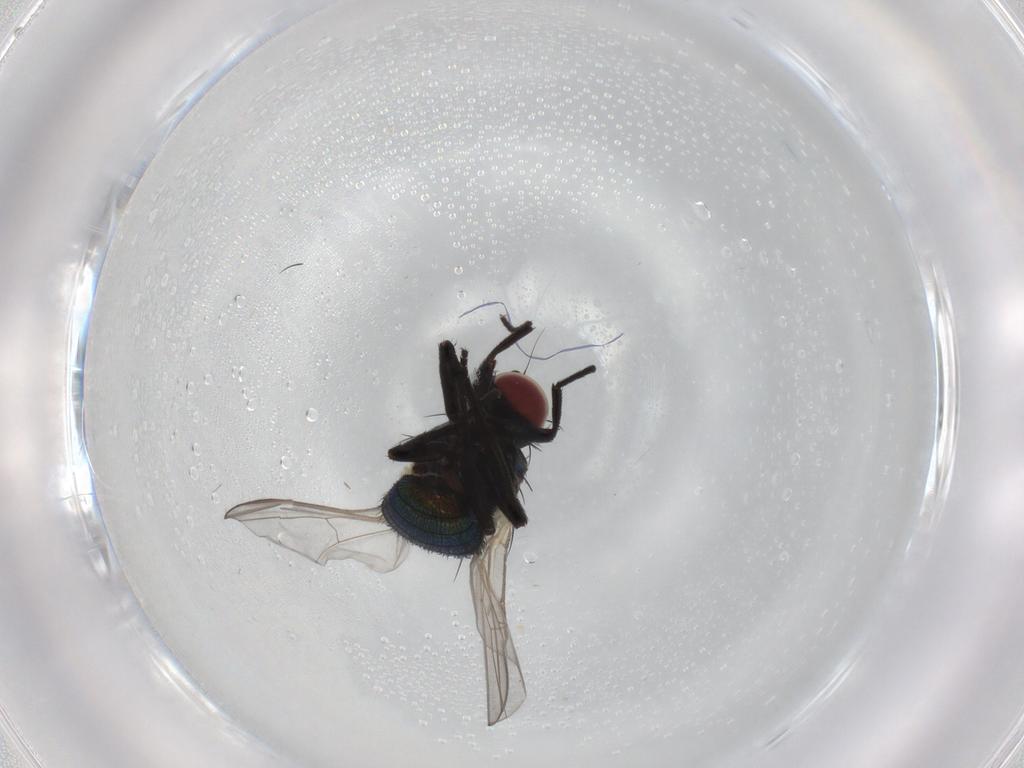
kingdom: Animalia
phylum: Arthropoda
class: Insecta
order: Diptera
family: Agromyzidae
